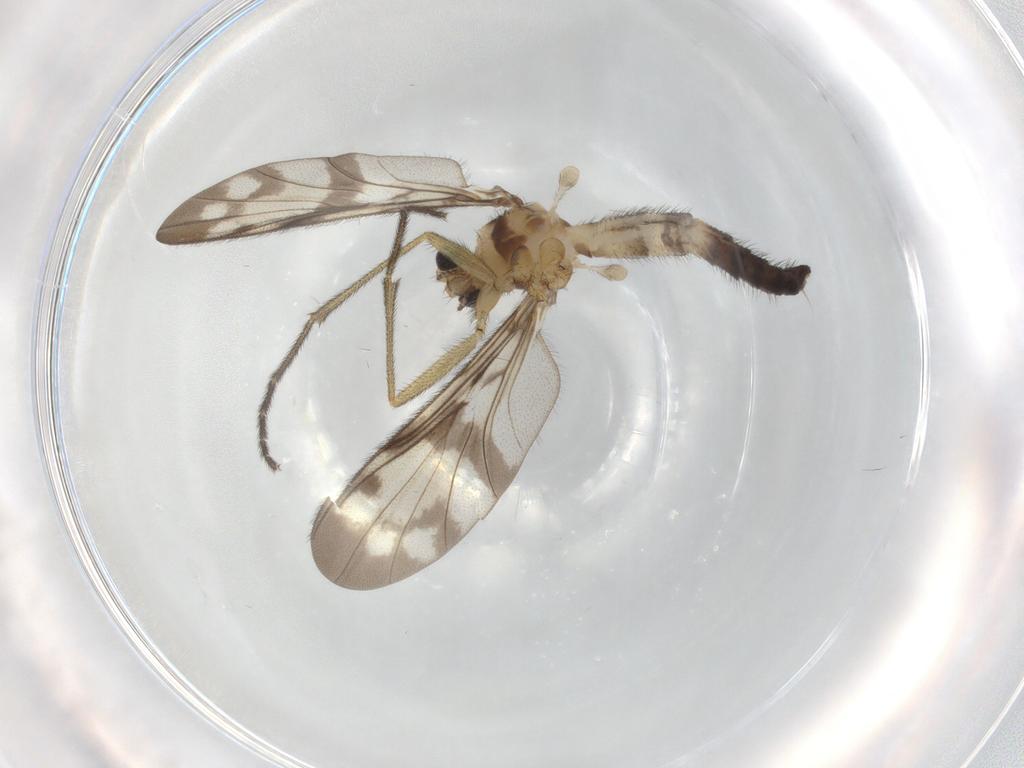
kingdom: Animalia
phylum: Arthropoda
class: Insecta
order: Diptera
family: Keroplatidae
